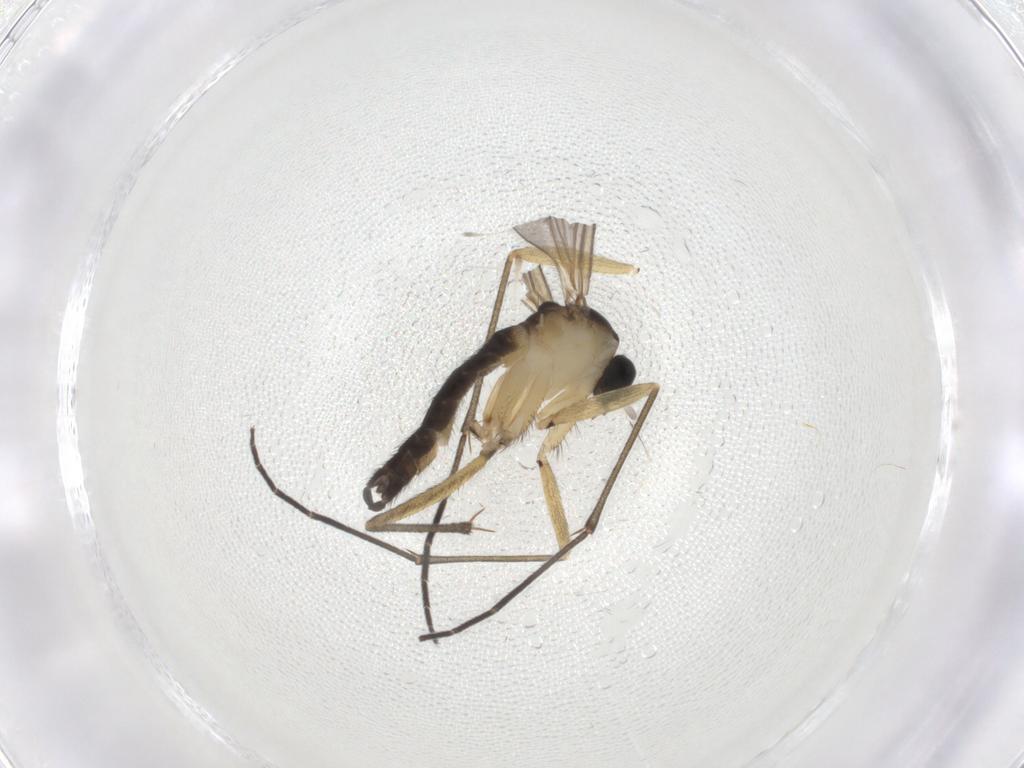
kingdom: Animalia
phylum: Arthropoda
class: Insecta
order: Diptera
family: Sciaridae
